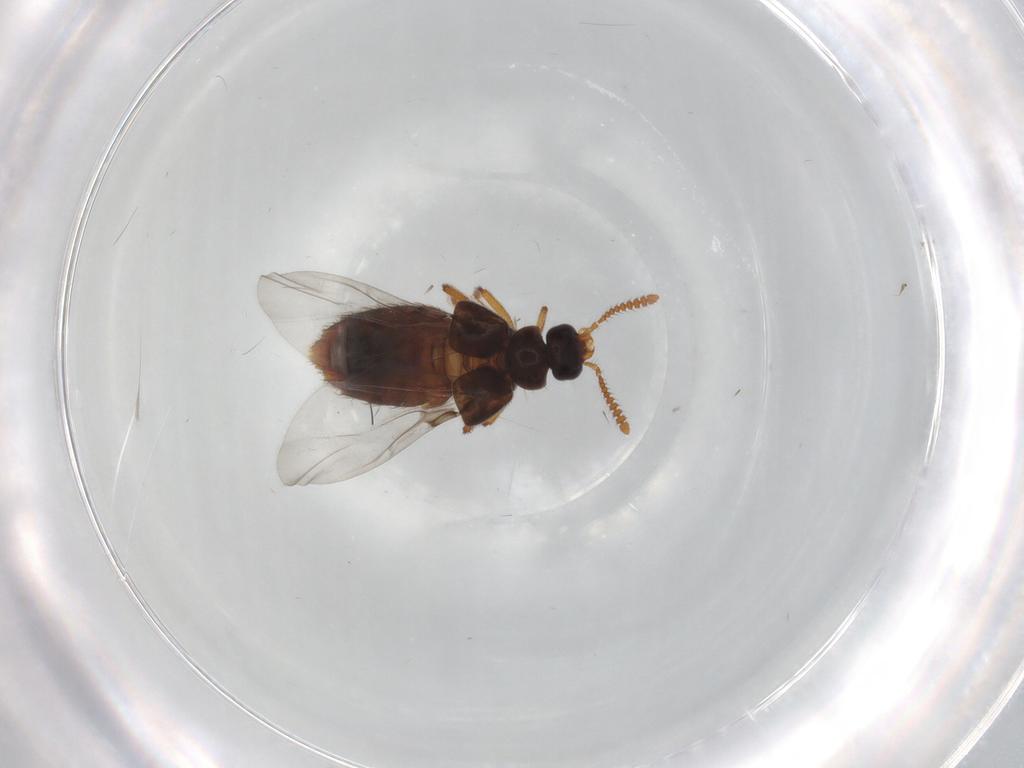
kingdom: Animalia
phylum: Arthropoda
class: Insecta
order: Coleoptera
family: Staphylinidae
